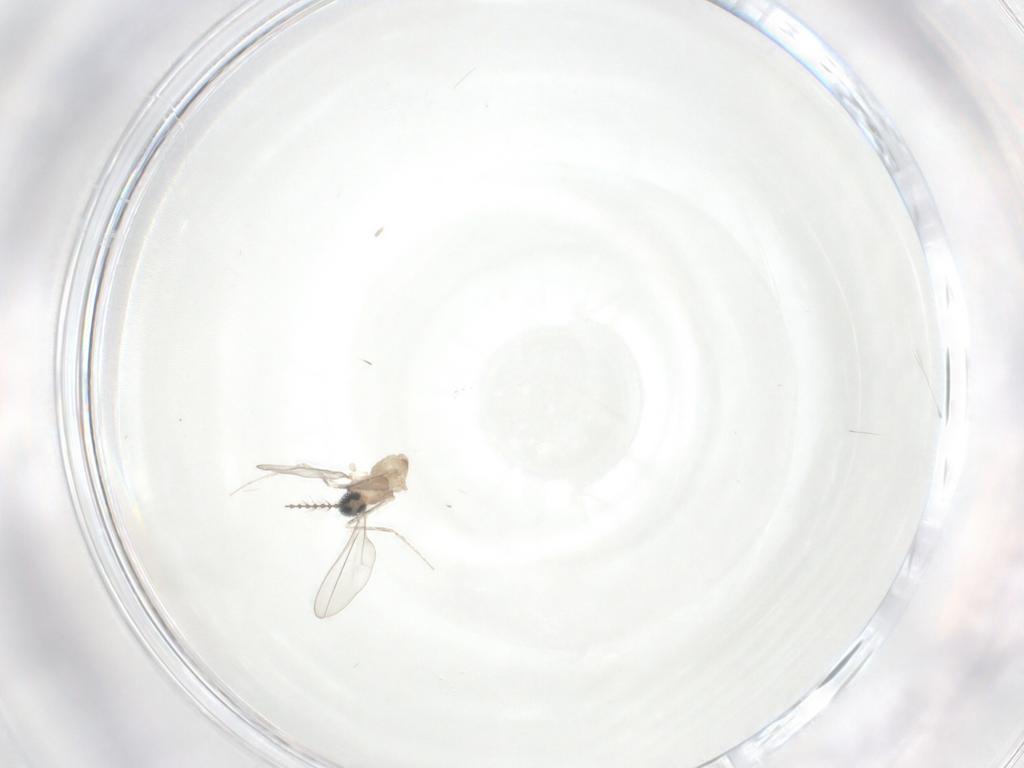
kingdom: Animalia
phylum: Arthropoda
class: Insecta
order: Diptera
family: Cecidomyiidae
